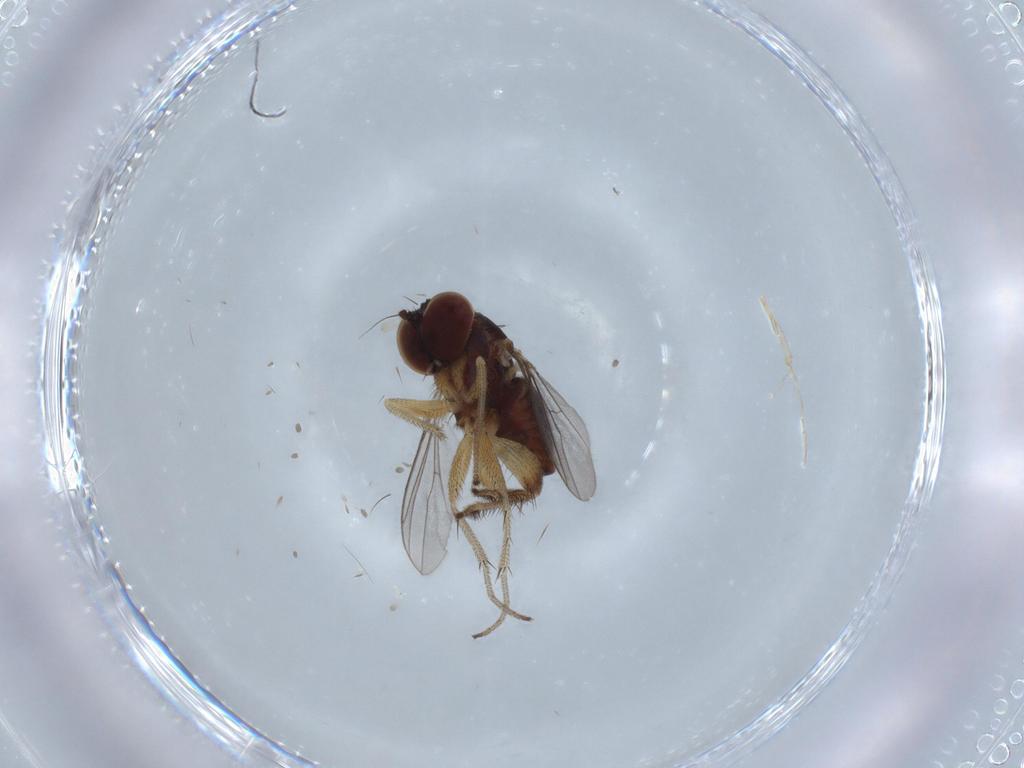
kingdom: Animalia
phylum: Arthropoda
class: Insecta
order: Diptera
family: Dolichopodidae
